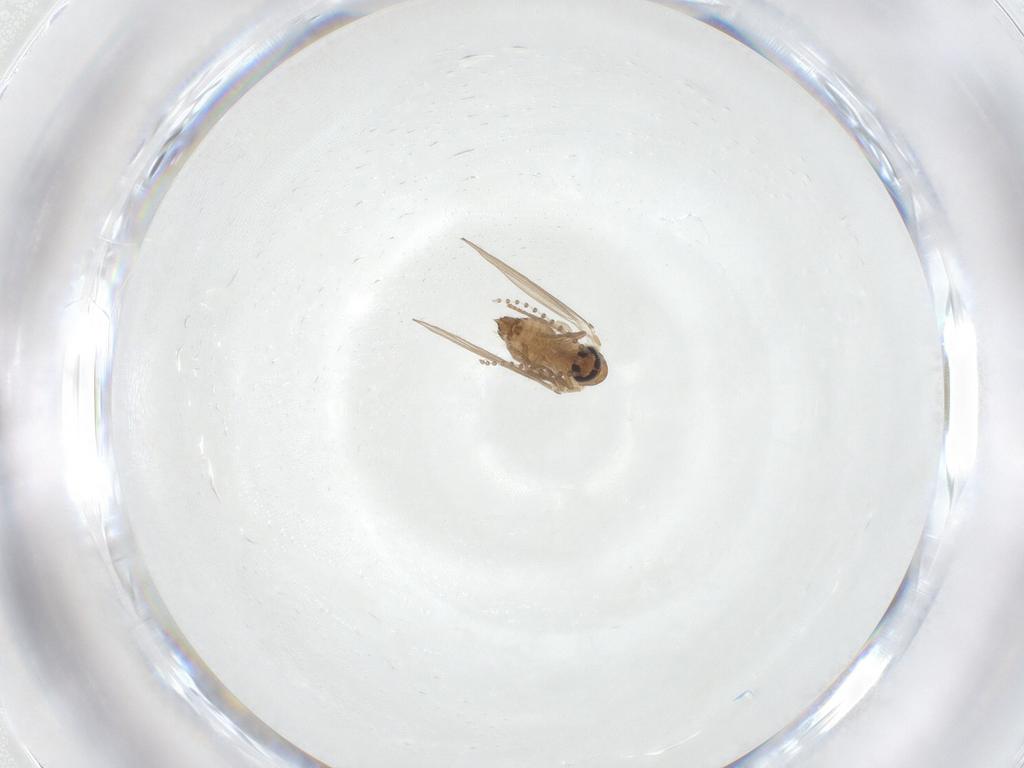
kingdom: Animalia
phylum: Arthropoda
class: Insecta
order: Diptera
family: Psychodidae
